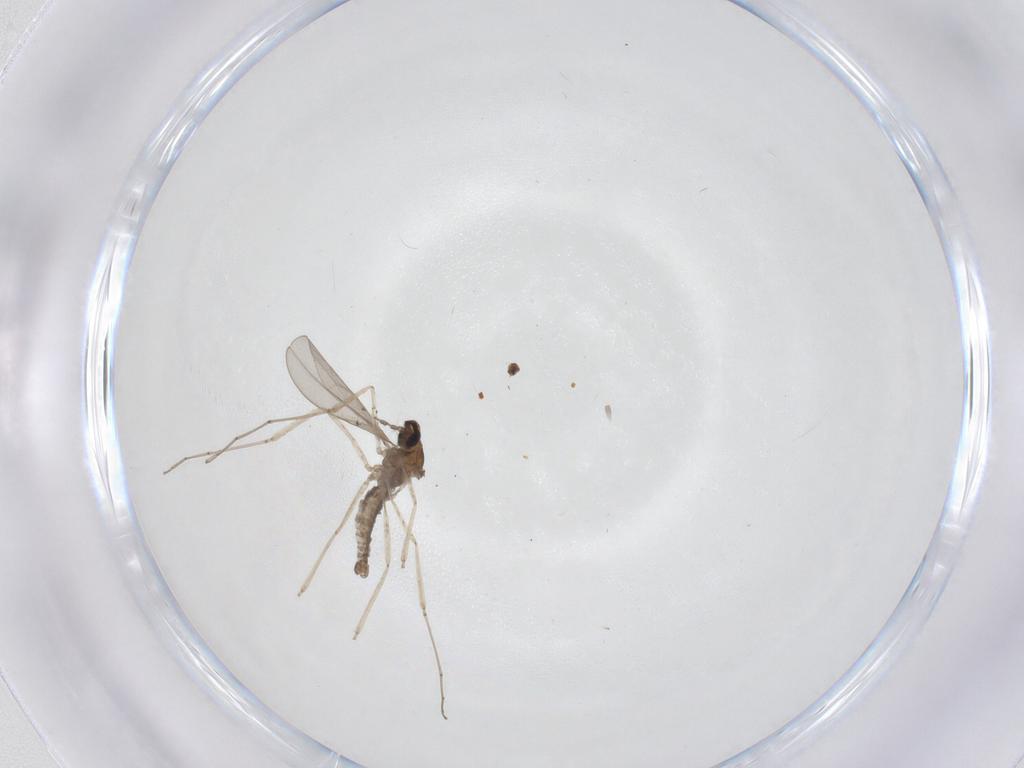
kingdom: Animalia
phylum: Arthropoda
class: Insecta
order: Diptera
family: Cecidomyiidae
